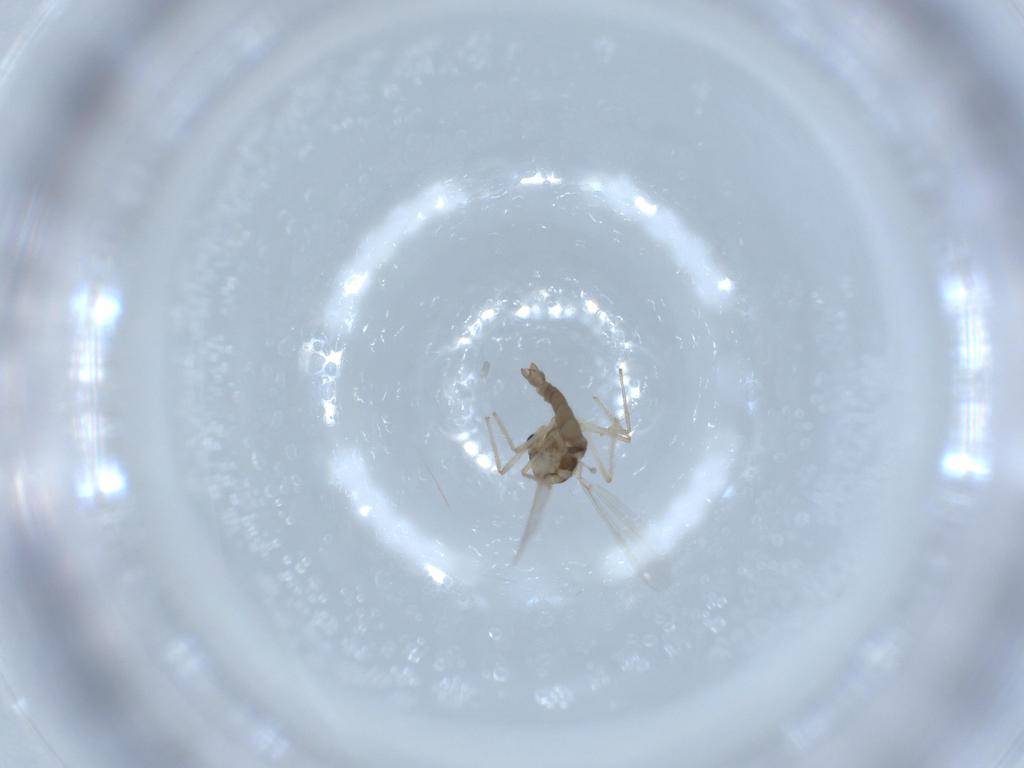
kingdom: Animalia
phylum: Arthropoda
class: Insecta
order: Diptera
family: Chironomidae
